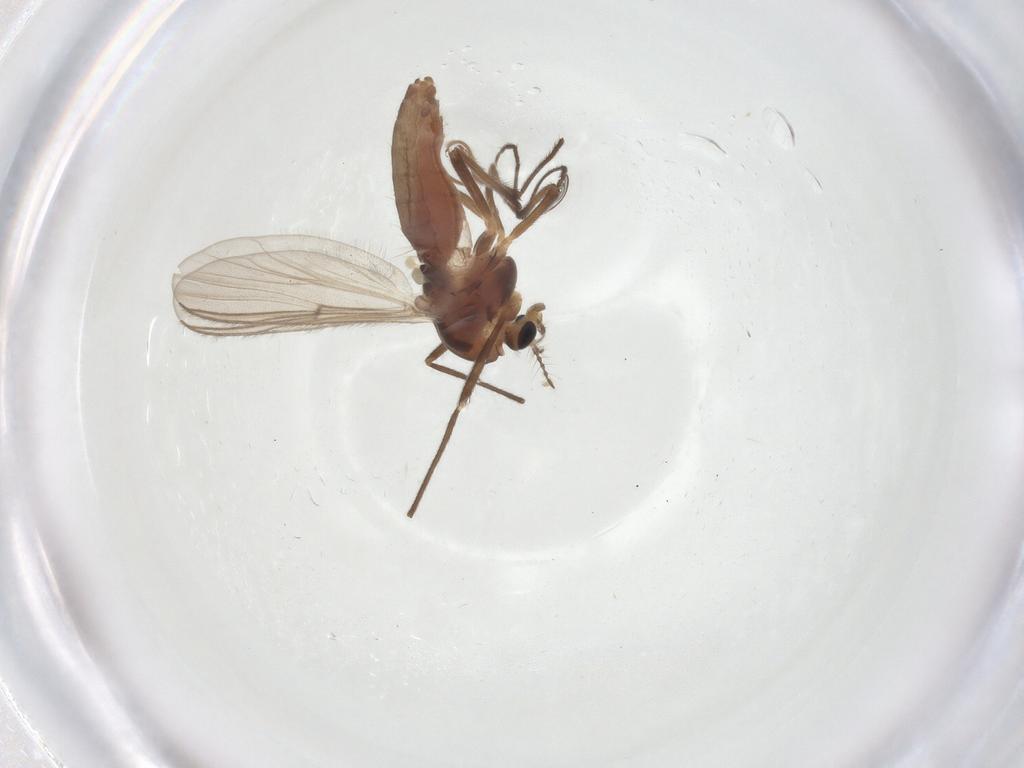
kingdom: Animalia
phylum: Arthropoda
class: Insecta
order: Diptera
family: Chironomidae
